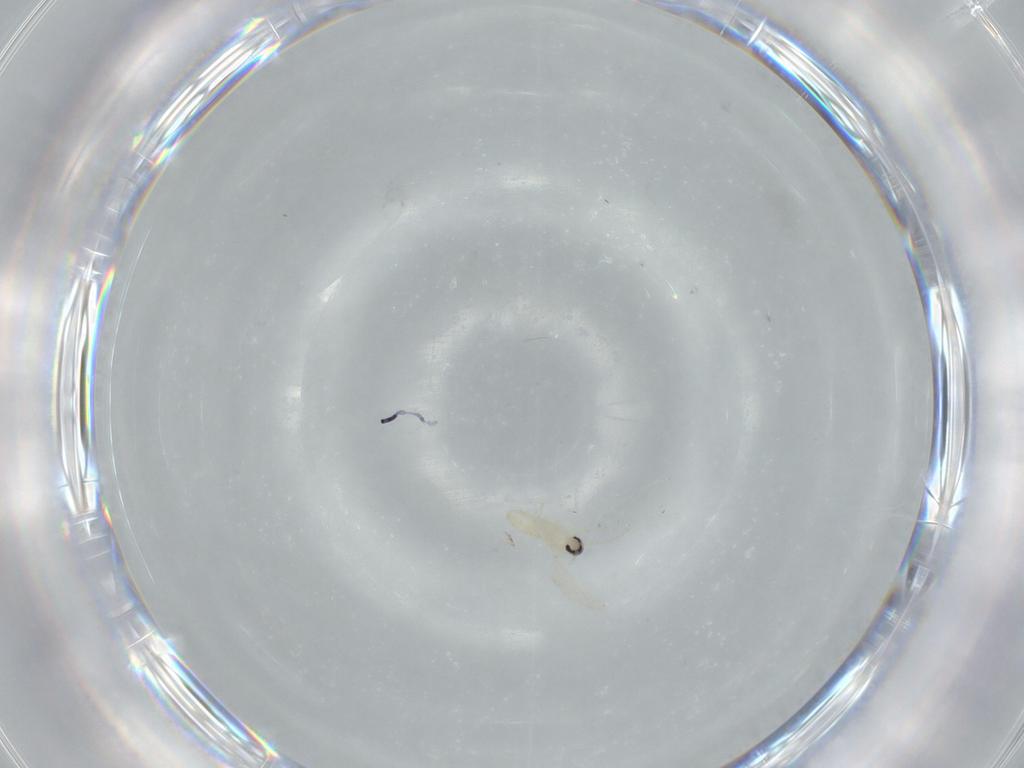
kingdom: Animalia
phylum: Arthropoda
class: Insecta
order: Diptera
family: Cecidomyiidae
